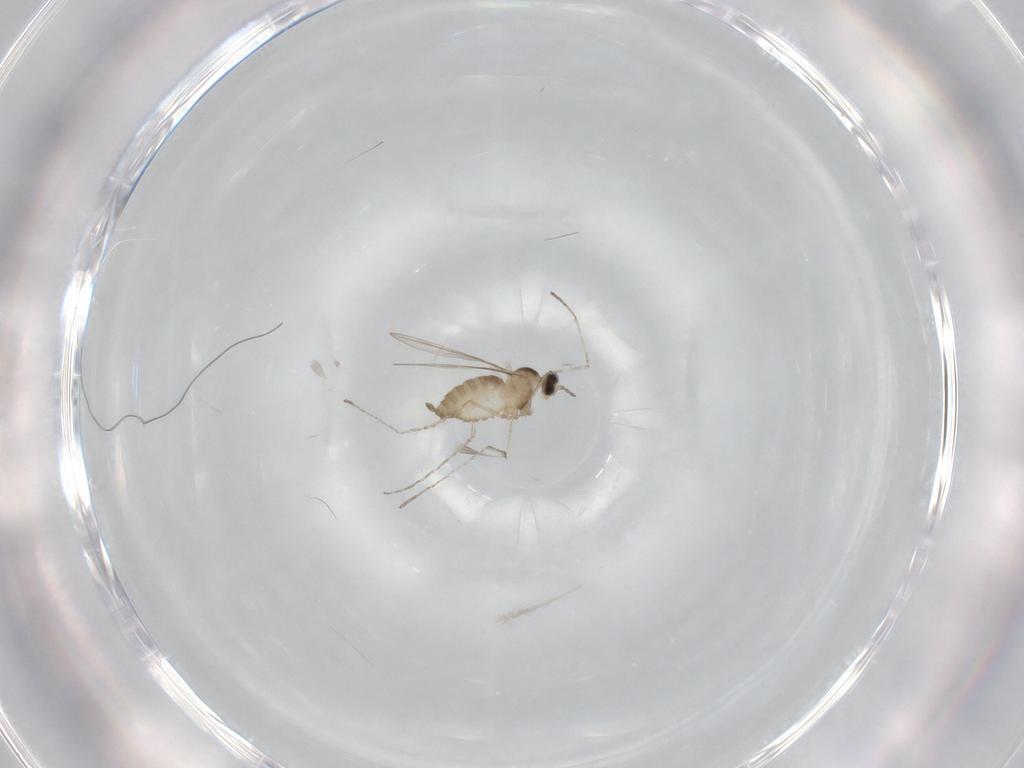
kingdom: Animalia
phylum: Arthropoda
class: Insecta
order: Diptera
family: Cecidomyiidae
